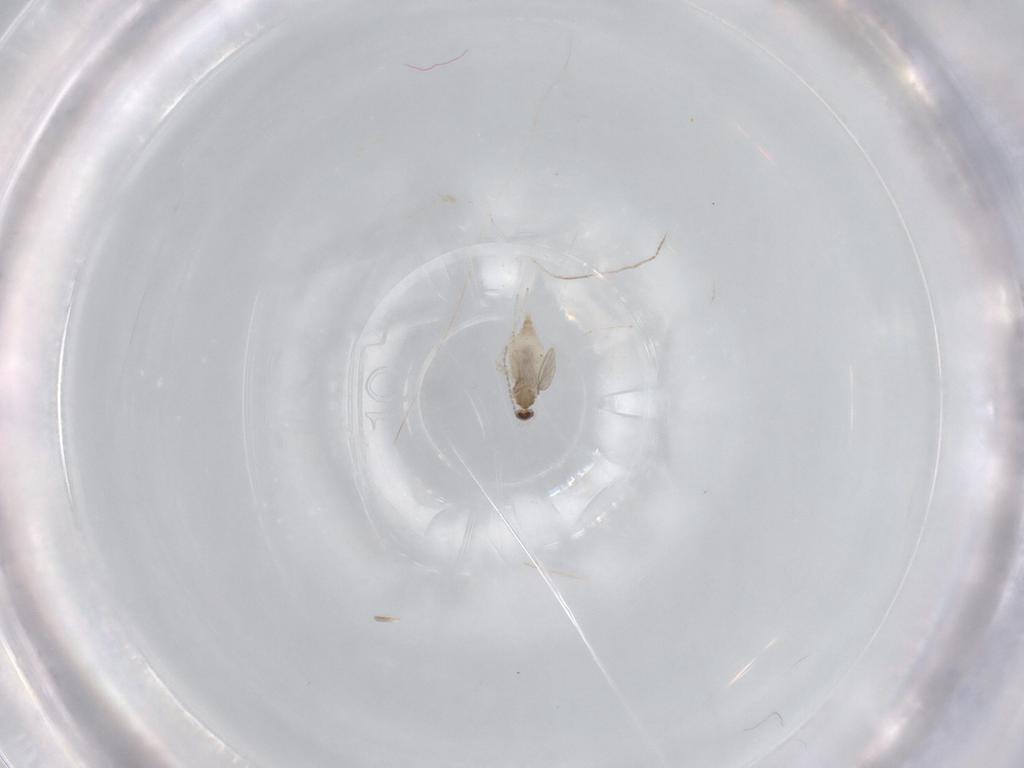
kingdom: Animalia
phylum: Arthropoda
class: Insecta
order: Diptera
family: Cecidomyiidae
